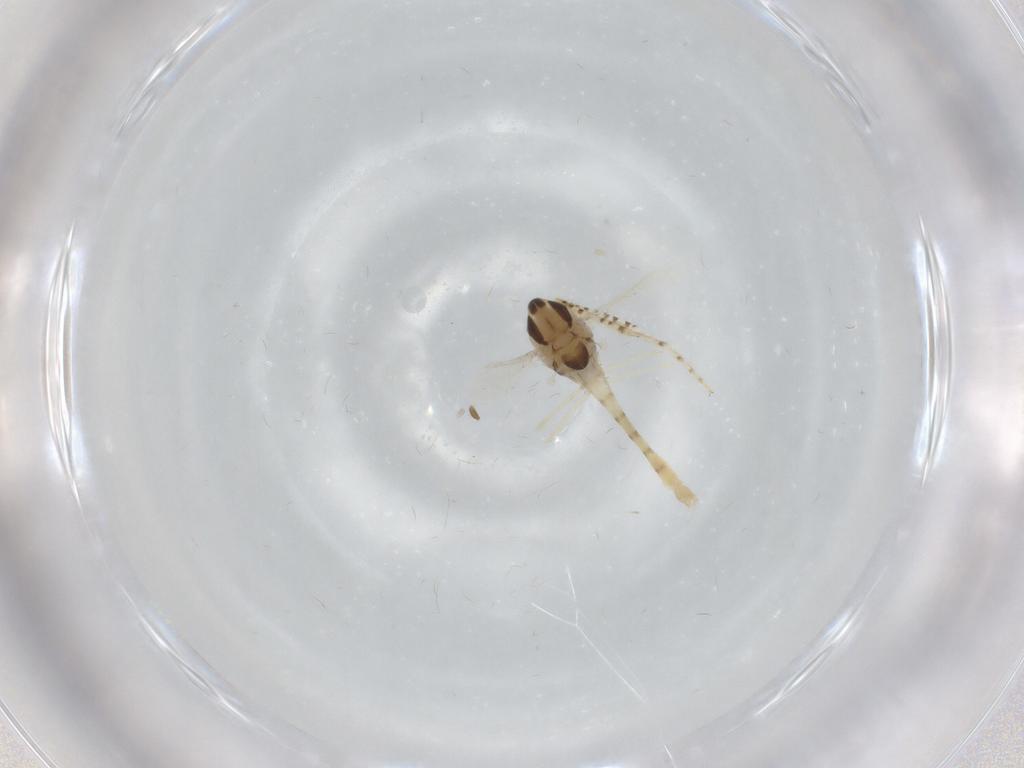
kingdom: Animalia
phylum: Arthropoda
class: Insecta
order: Diptera
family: Chironomidae
